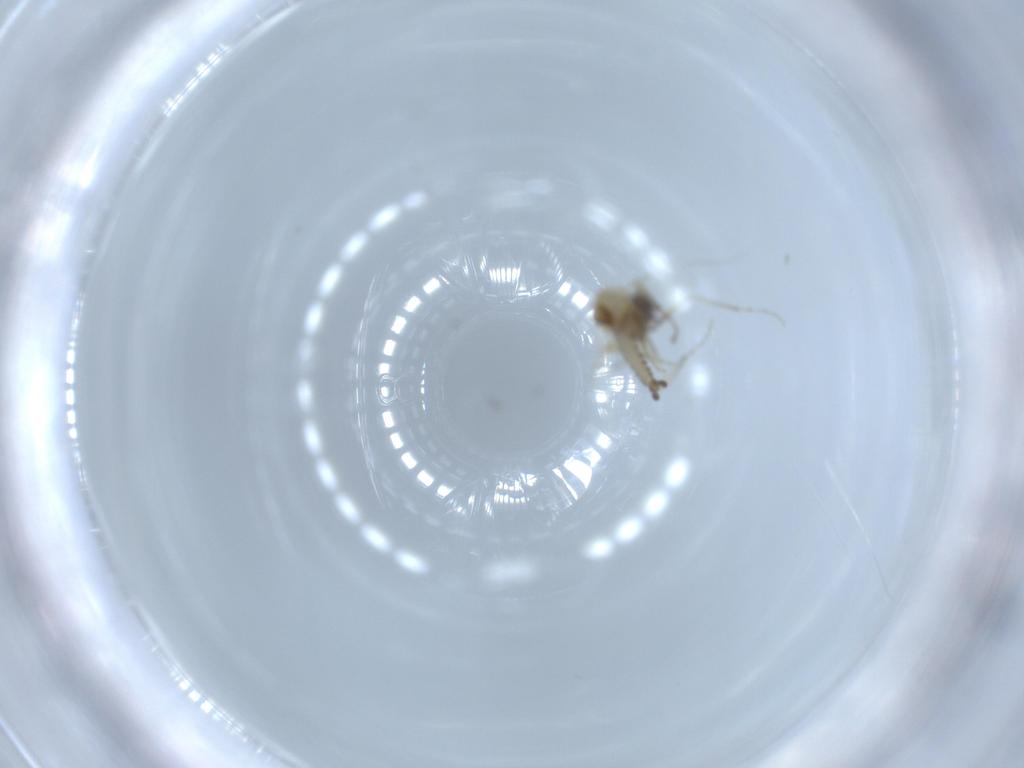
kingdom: Animalia
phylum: Arthropoda
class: Insecta
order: Diptera
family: Ceratopogonidae
